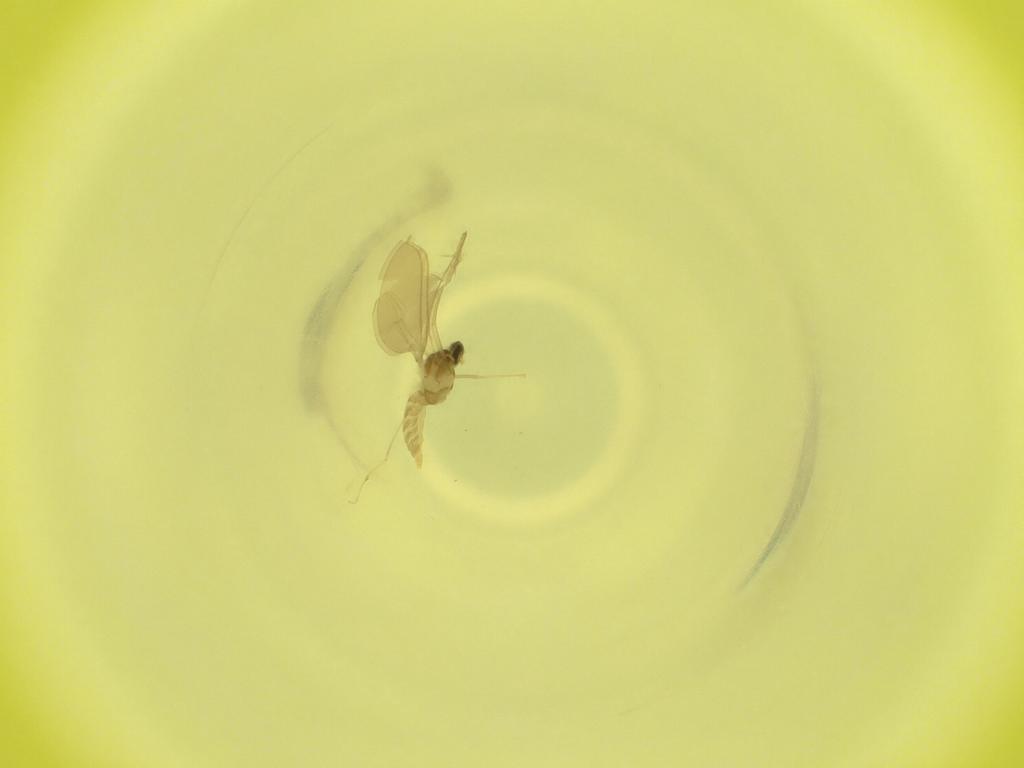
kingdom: Animalia
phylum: Arthropoda
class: Insecta
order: Diptera
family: Cecidomyiidae
